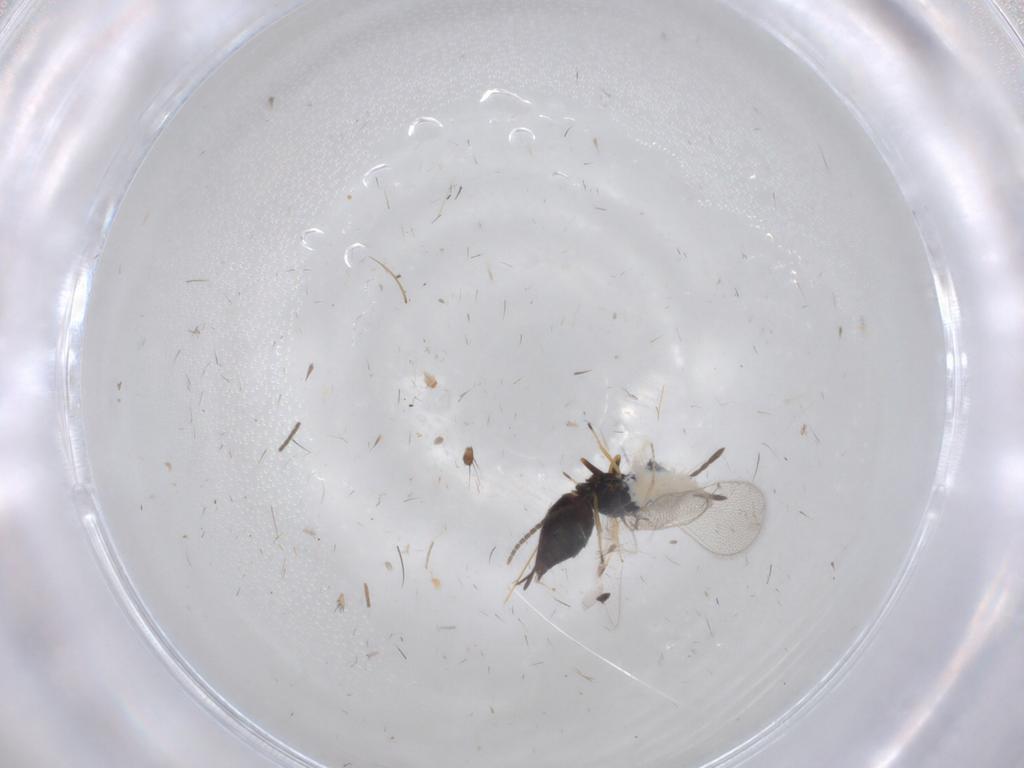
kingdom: Animalia
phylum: Arthropoda
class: Insecta
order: Hymenoptera
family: Eulophidae
